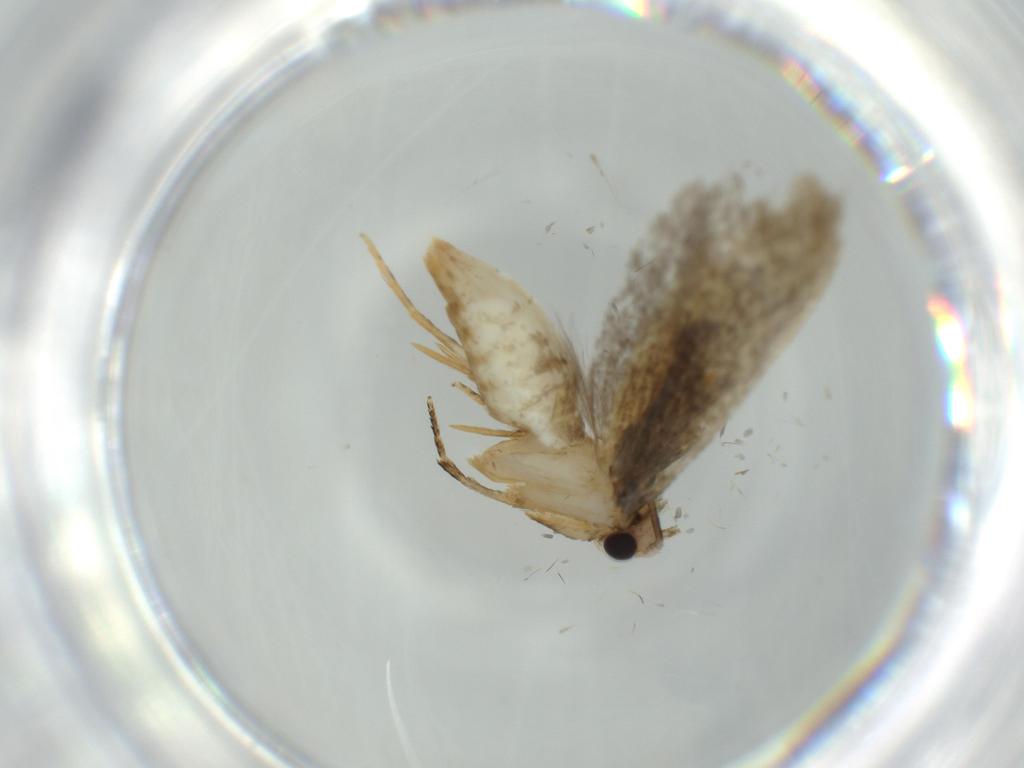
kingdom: Animalia
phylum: Arthropoda
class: Insecta
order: Lepidoptera
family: Tineidae
